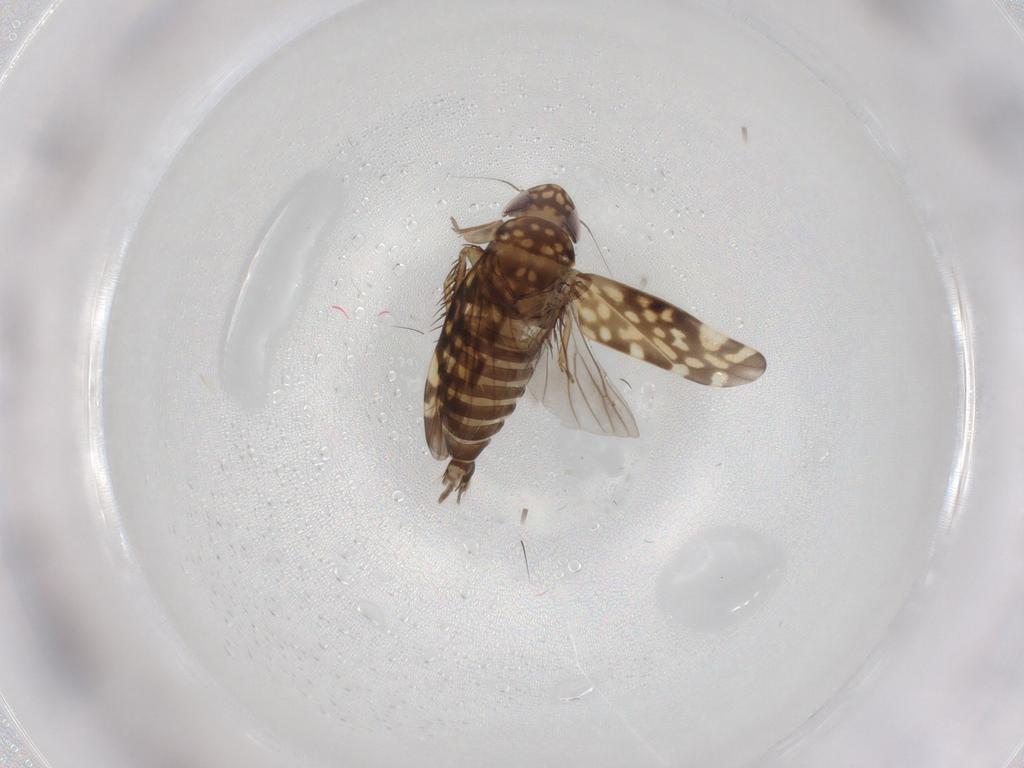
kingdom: Animalia
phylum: Arthropoda
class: Insecta
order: Hemiptera
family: Cicadellidae
